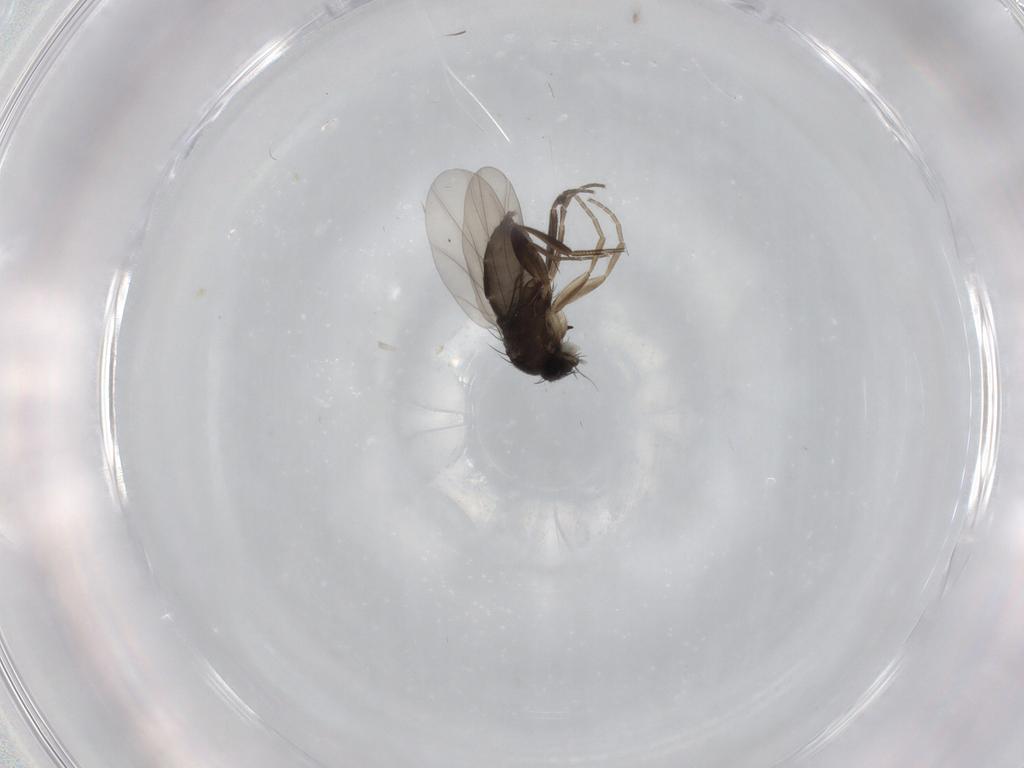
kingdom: Animalia
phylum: Arthropoda
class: Insecta
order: Diptera
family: Phoridae
